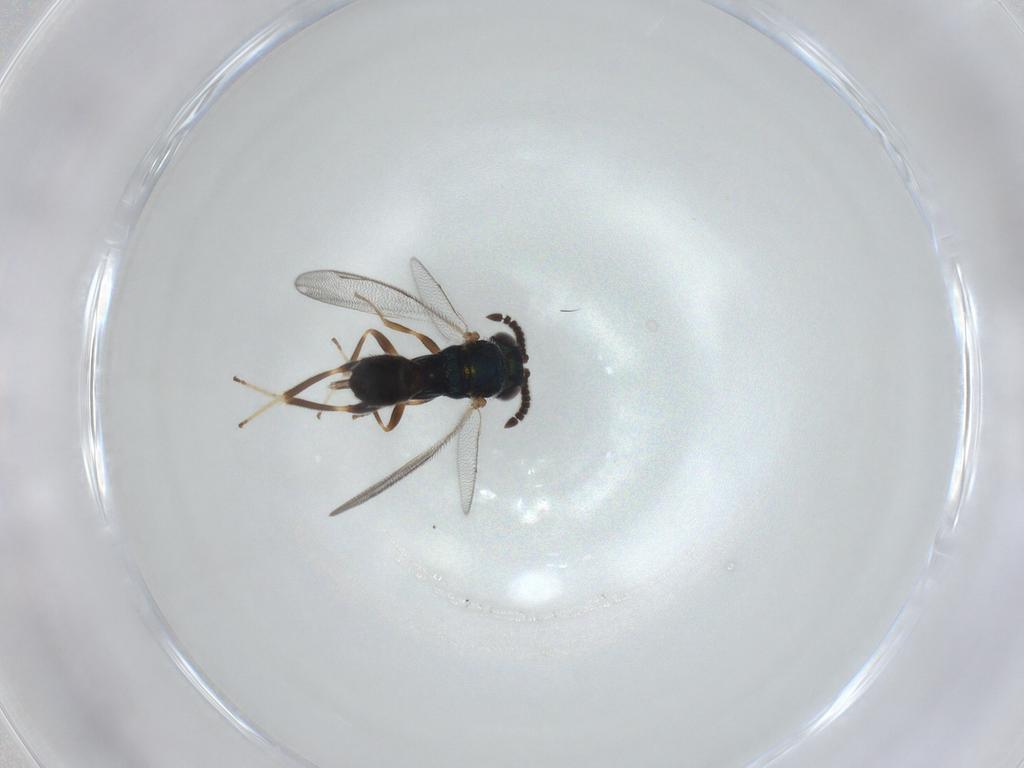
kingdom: Animalia
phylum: Arthropoda
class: Insecta
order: Hymenoptera
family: Cleonyminae
